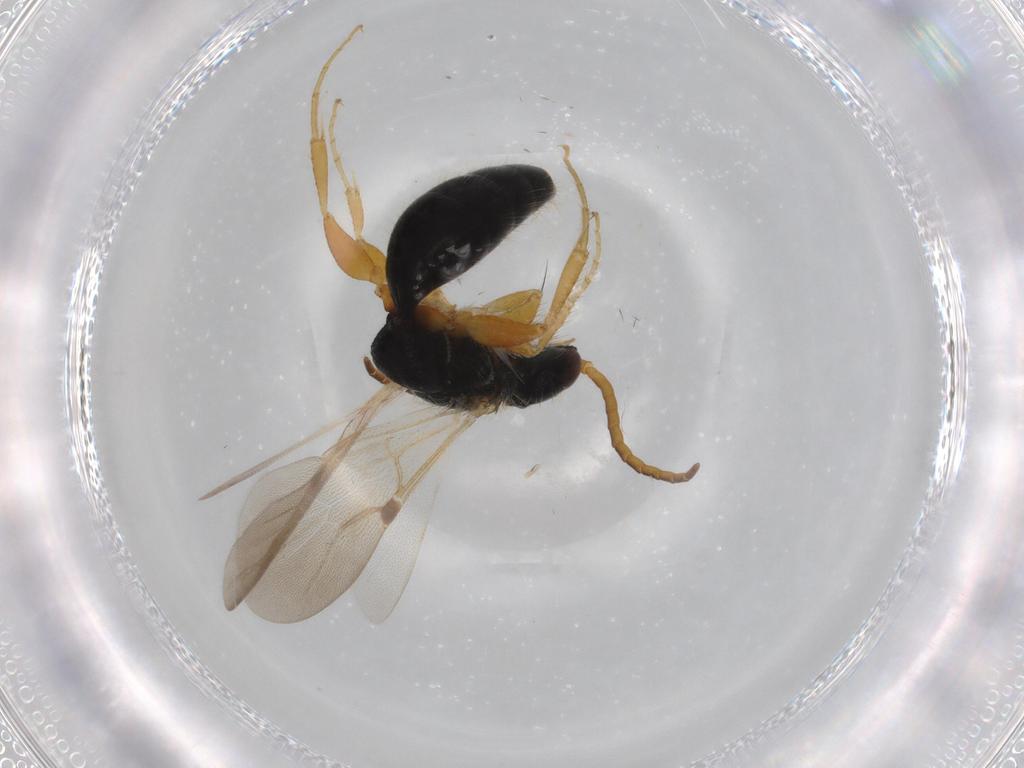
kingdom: Animalia
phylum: Arthropoda
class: Insecta
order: Hymenoptera
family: Bethylidae
